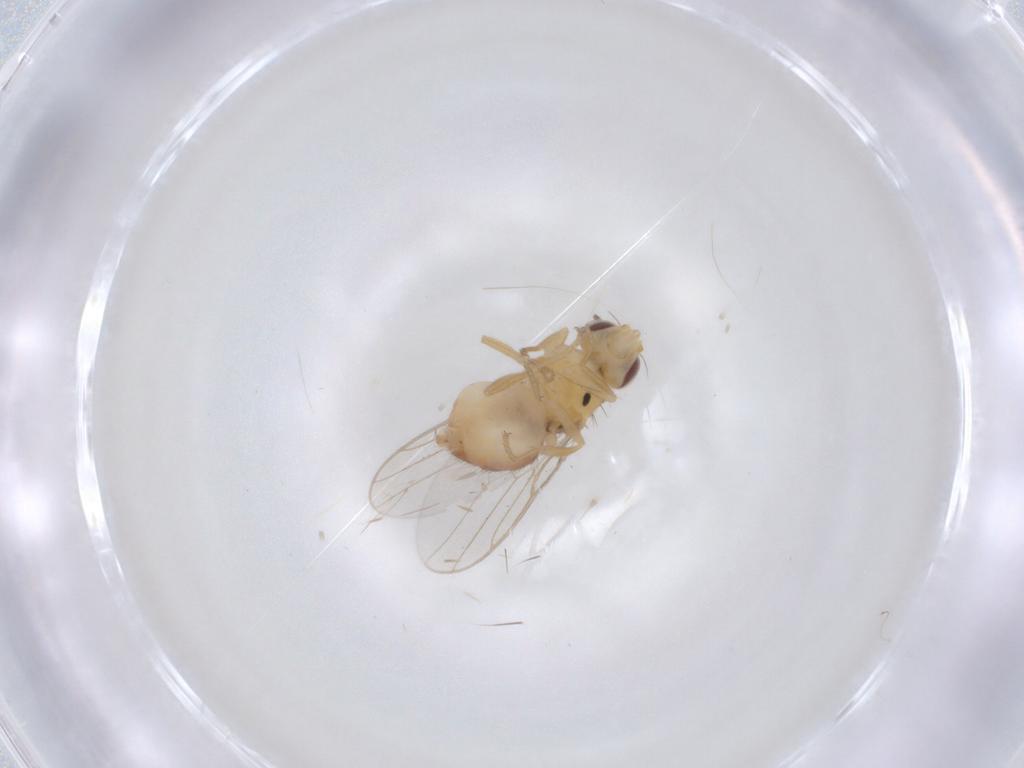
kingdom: Animalia
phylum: Arthropoda
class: Insecta
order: Diptera
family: Chloropidae
